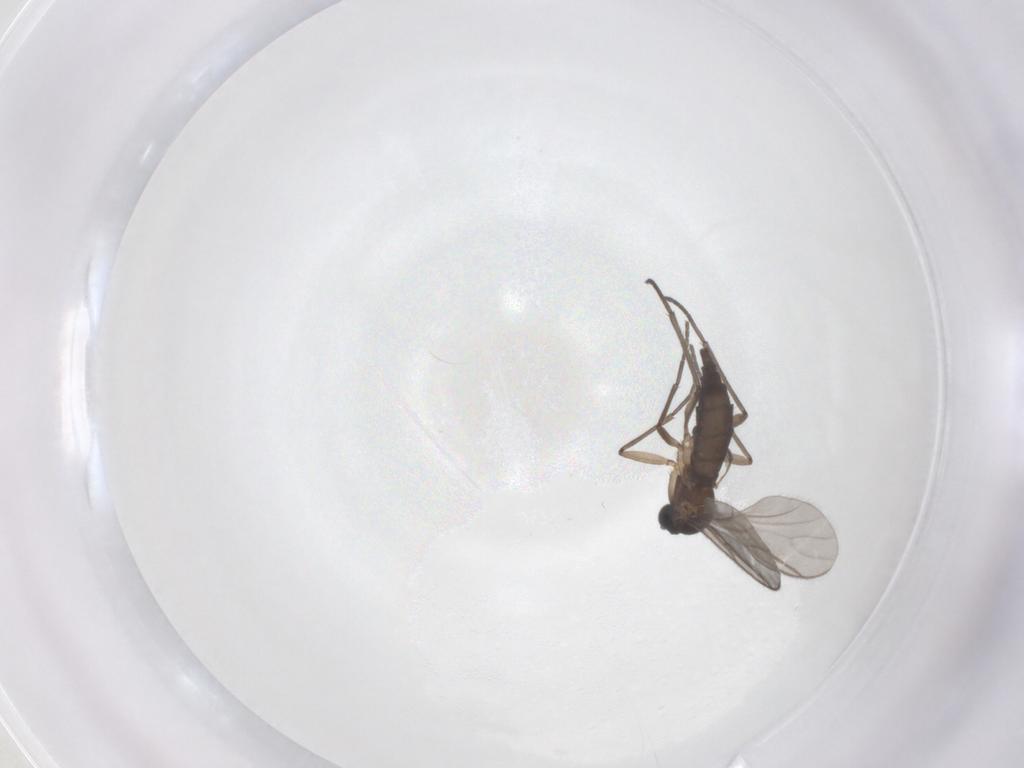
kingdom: Animalia
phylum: Arthropoda
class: Insecta
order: Diptera
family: Sciaridae
